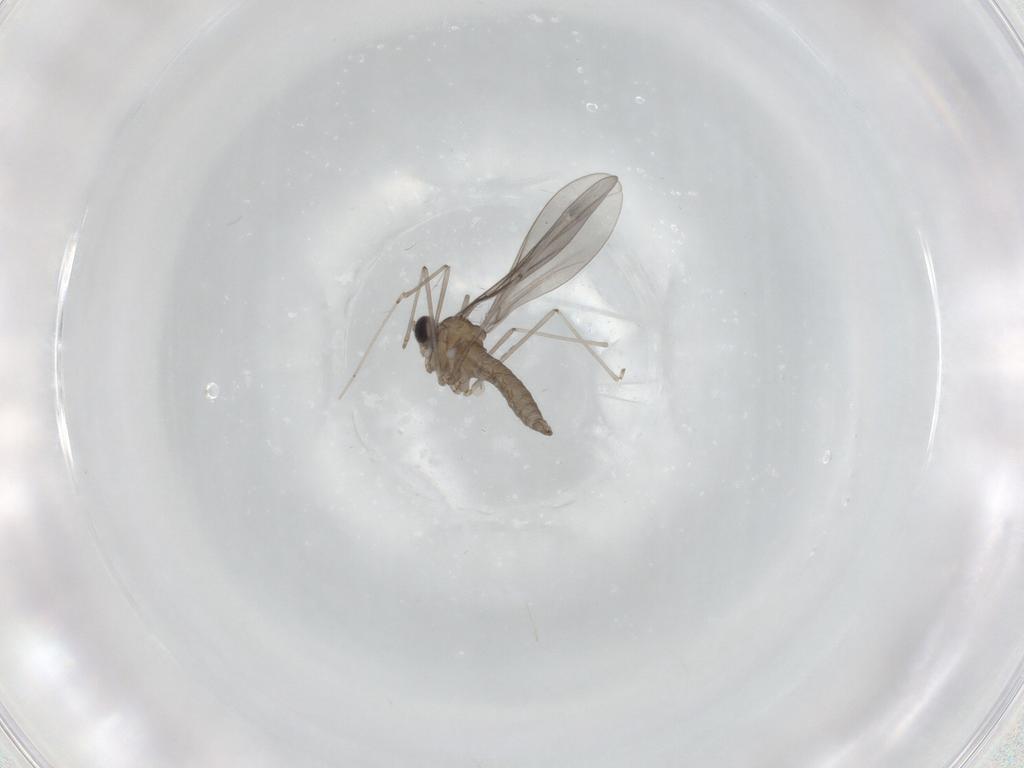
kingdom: Animalia
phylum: Arthropoda
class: Insecta
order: Diptera
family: Cecidomyiidae
